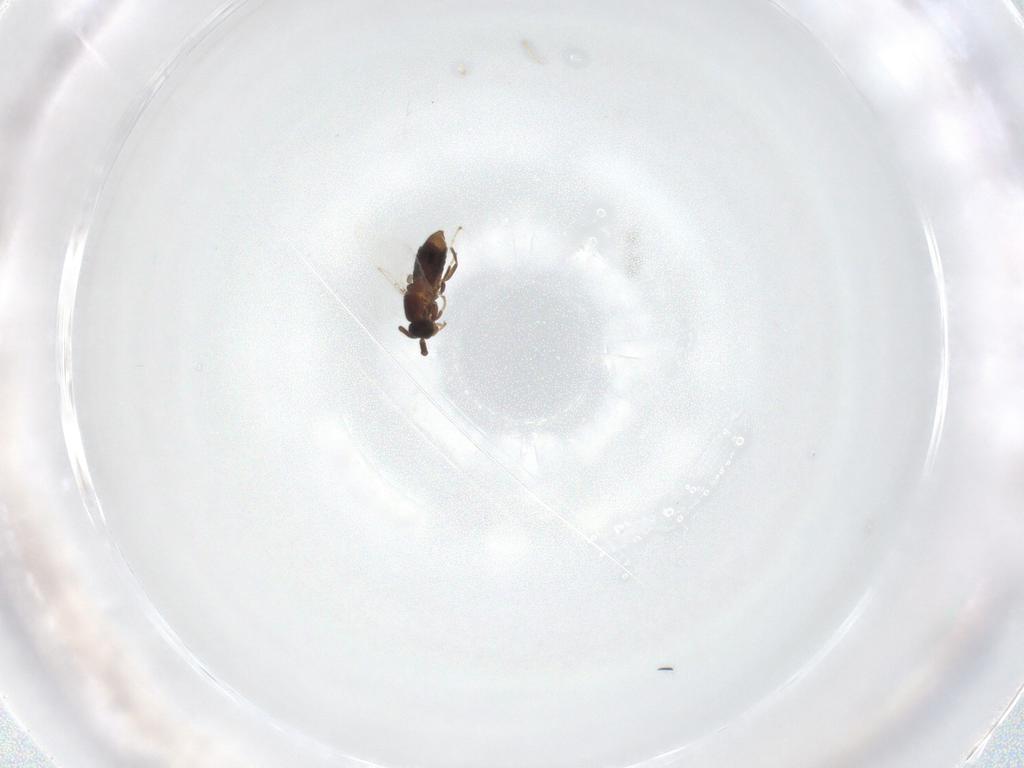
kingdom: Animalia
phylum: Arthropoda
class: Insecta
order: Diptera
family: Scatopsidae
